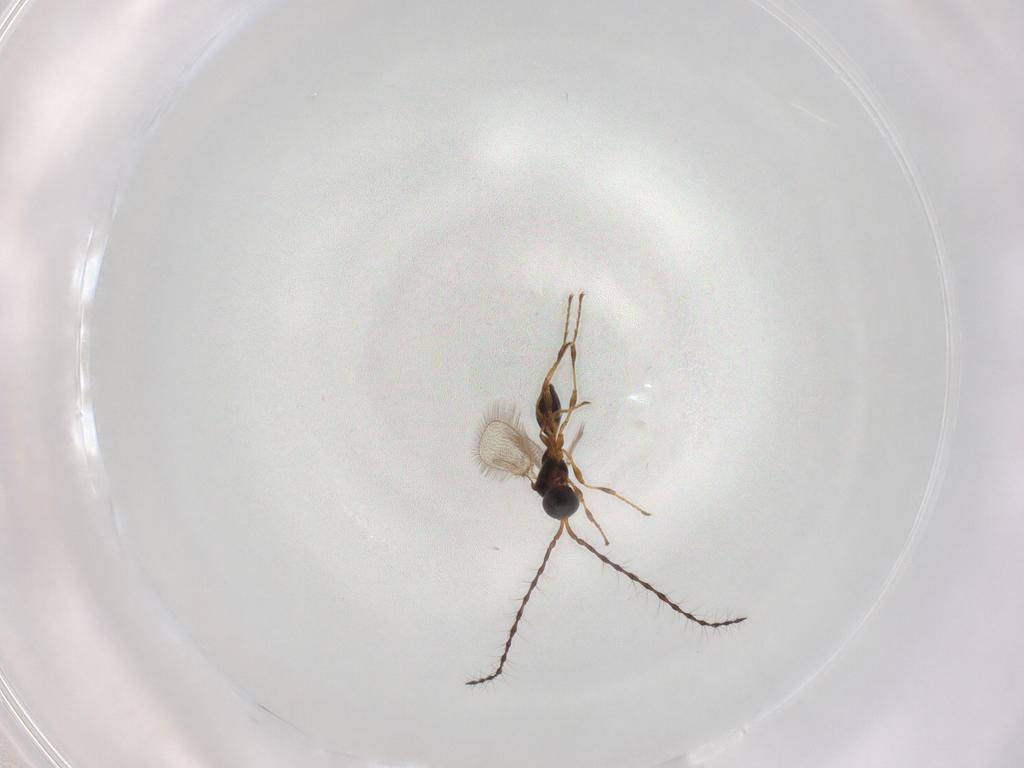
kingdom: Animalia
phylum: Arthropoda
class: Insecta
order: Hymenoptera
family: Diapriidae
